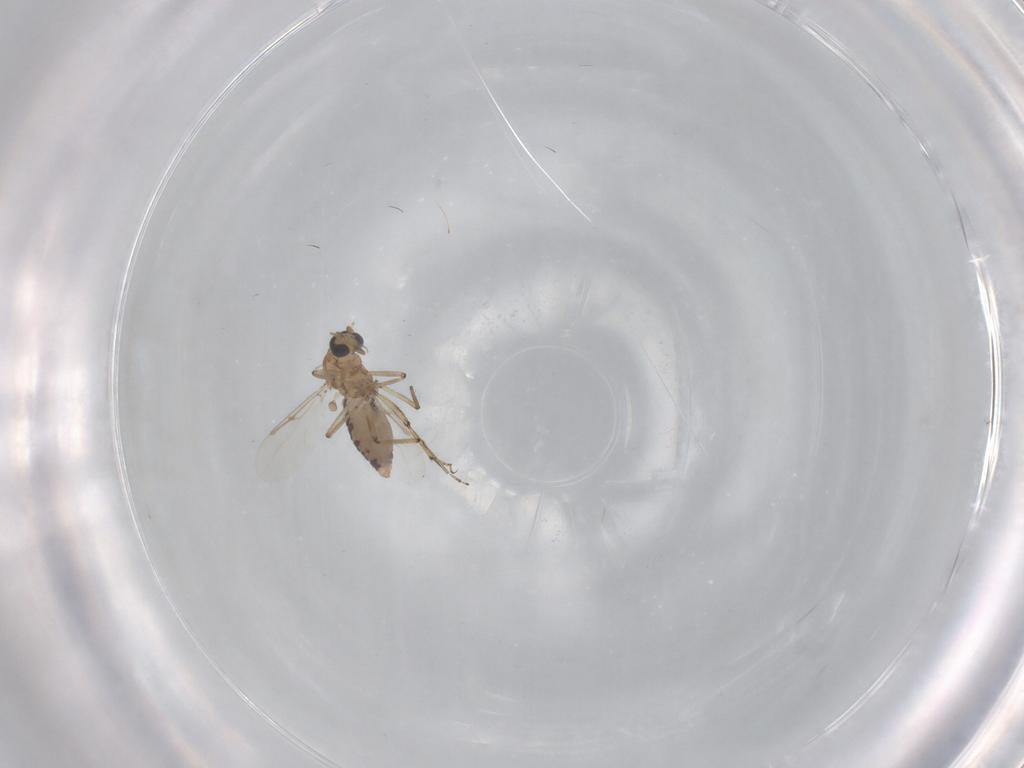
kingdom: Animalia
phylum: Arthropoda
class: Insecta
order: Diptera
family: Ceratopogonidae
